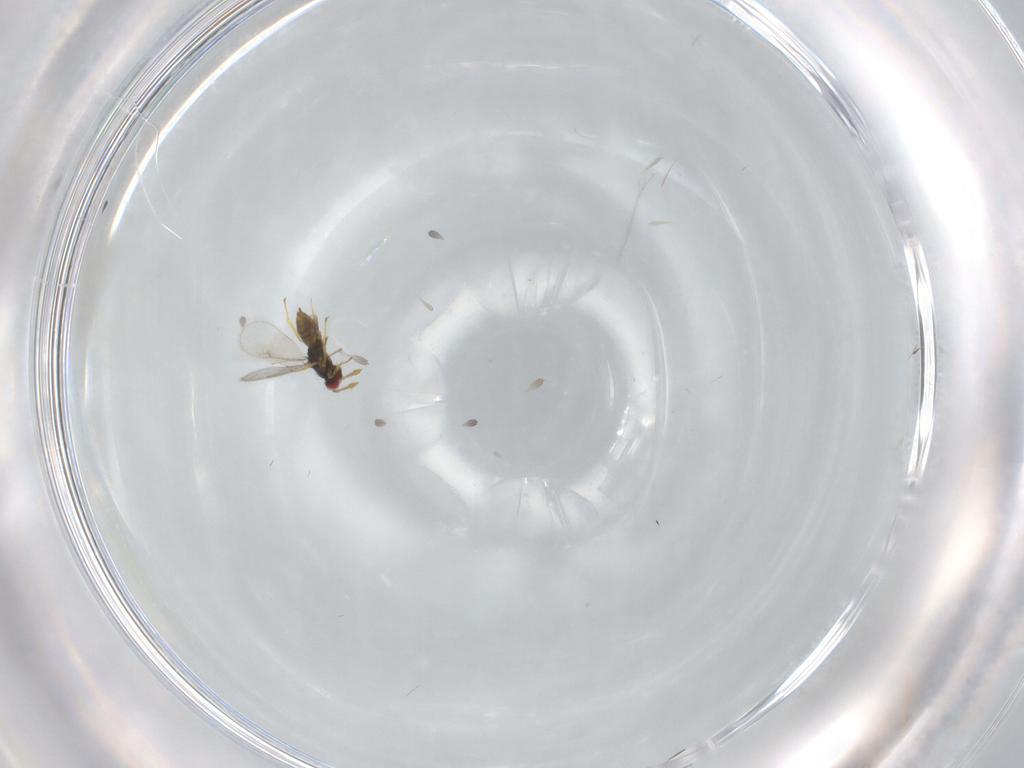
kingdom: Animalia
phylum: Arthropoda
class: Insecta
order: Hymenoptera
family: Eulophidae
